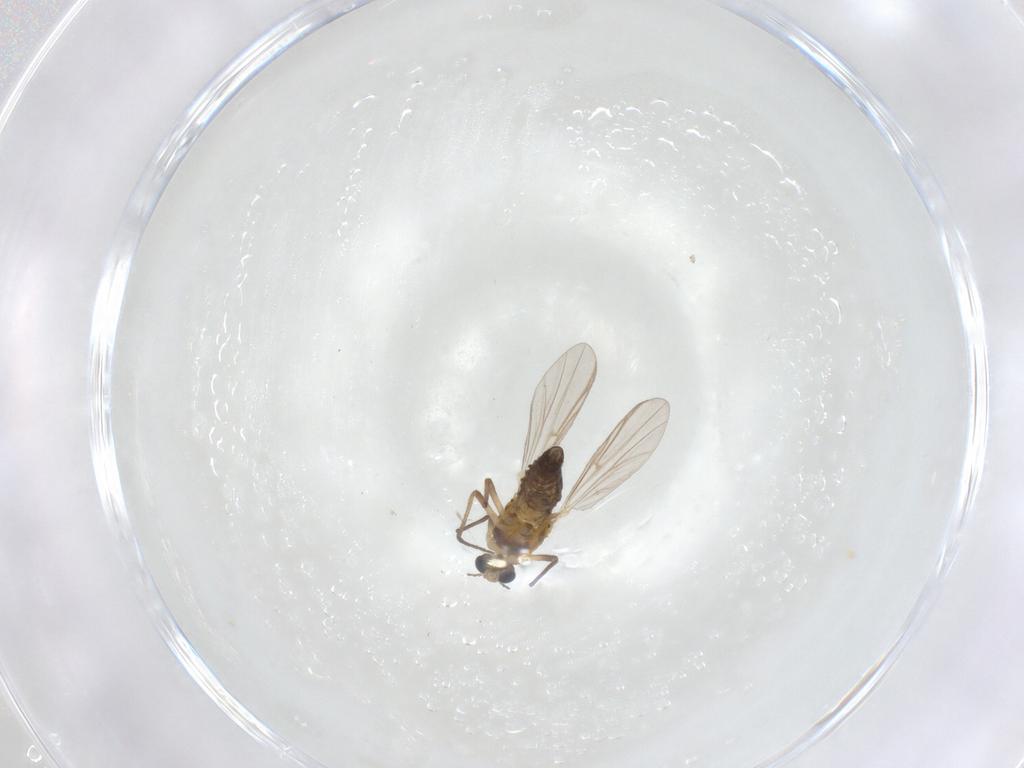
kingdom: Animalia
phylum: Arthropoda
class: Insecta
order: Diptera
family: Chironomidae
